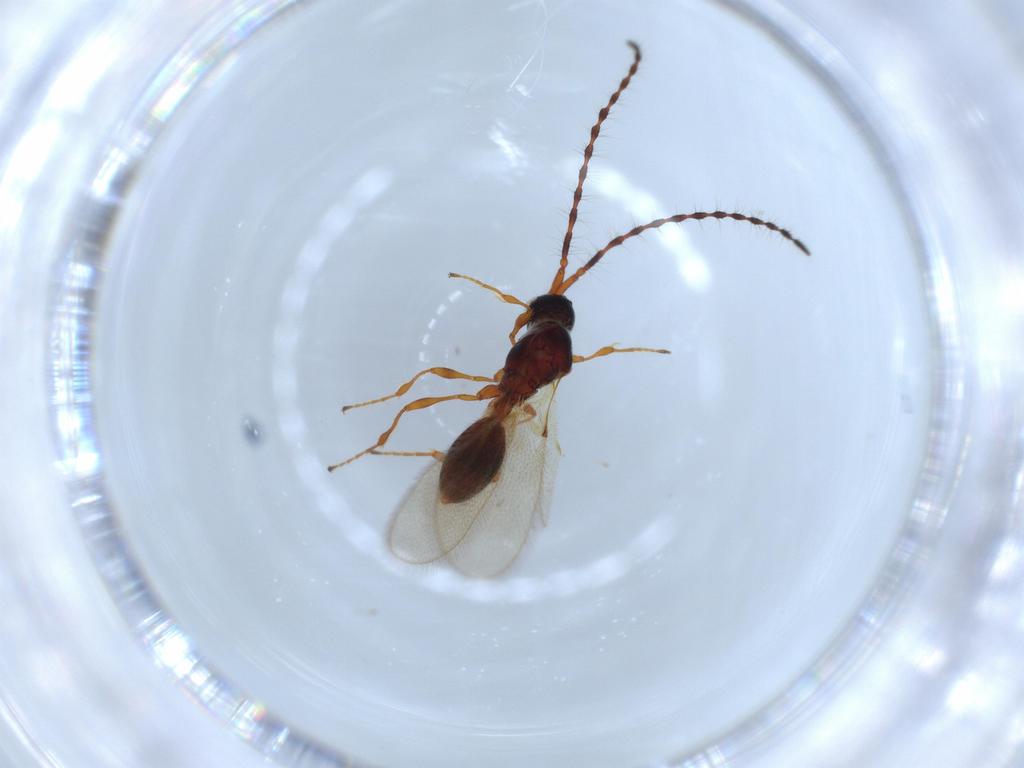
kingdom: Animalia
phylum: Arthropoda
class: Insecta
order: Hymenoptera
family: Diapriidae
